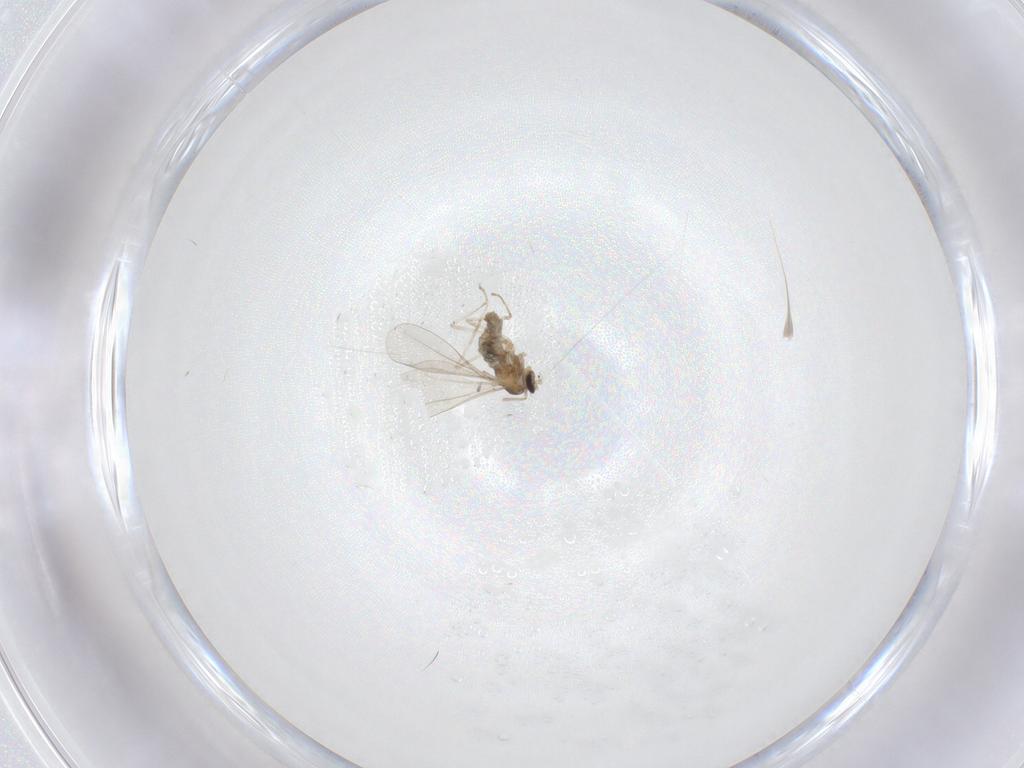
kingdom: Animalia
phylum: Arthropoda
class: Insecta
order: Diptera
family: Cecidomyiidae
